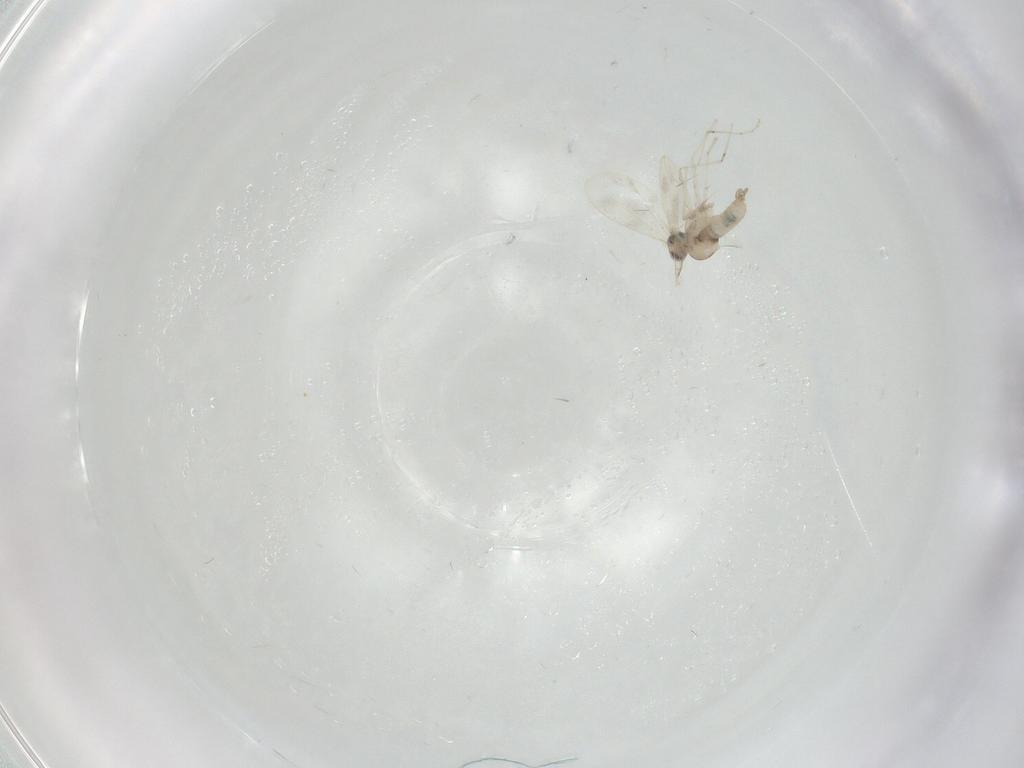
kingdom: Animalia
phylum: Arthropoda
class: Insecta
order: Diptera
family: Cecidomyiidae
